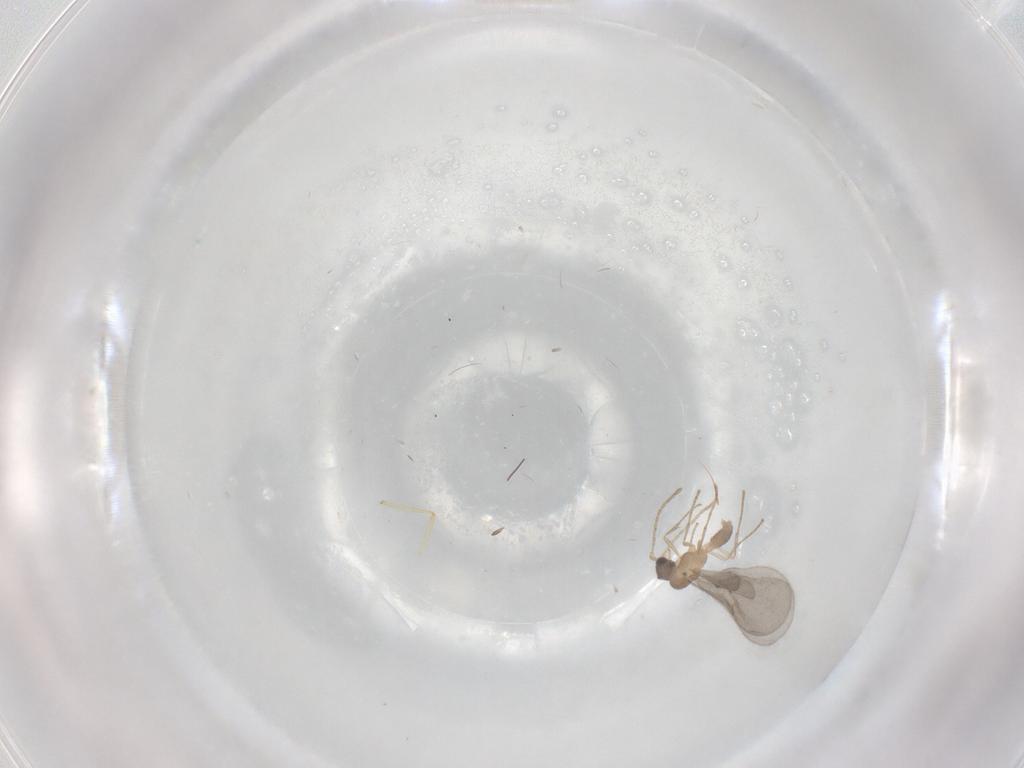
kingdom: Animalia
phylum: Arthropoda
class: Insecta
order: Hymenoptera
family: Formicidae
